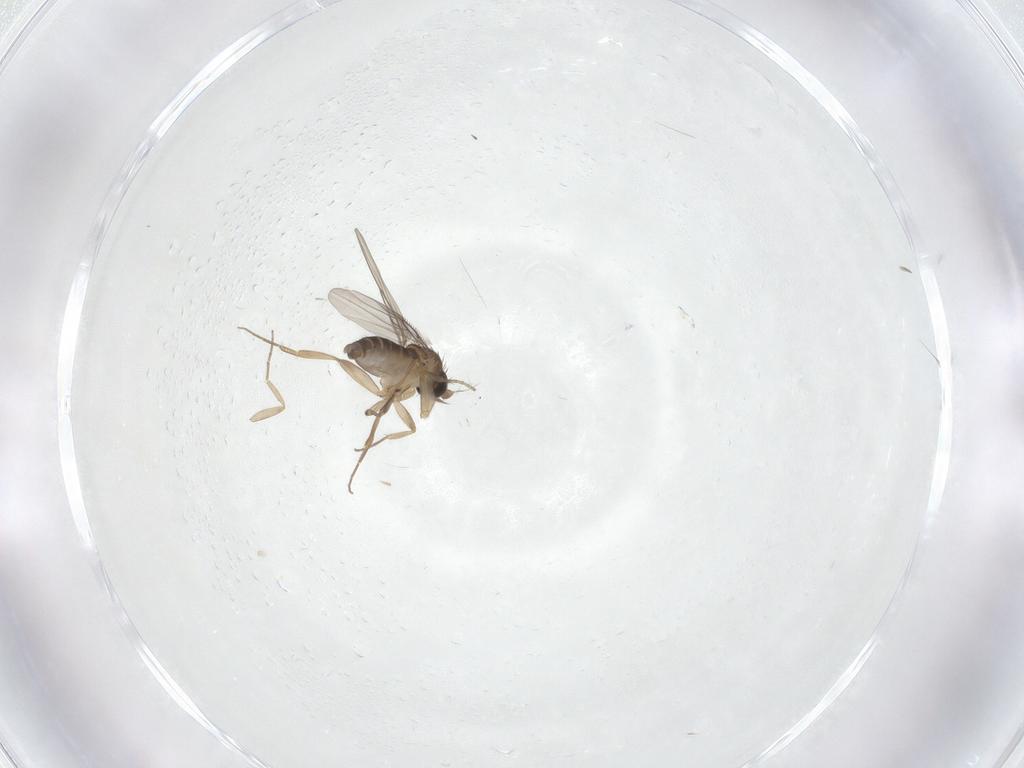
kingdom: Animalia
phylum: Arthropoda
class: Insecta
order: Diptera
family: Phoridae
